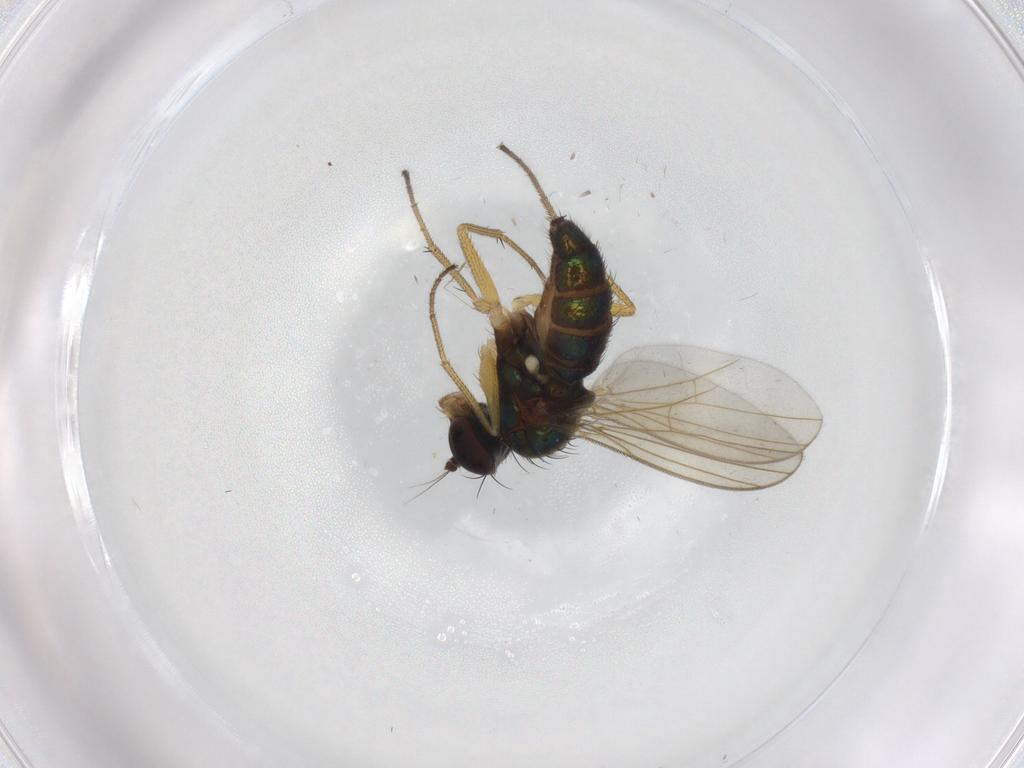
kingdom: Animalia
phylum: Arthropoda
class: Insecta
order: Diptera
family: Dolichopodidae
